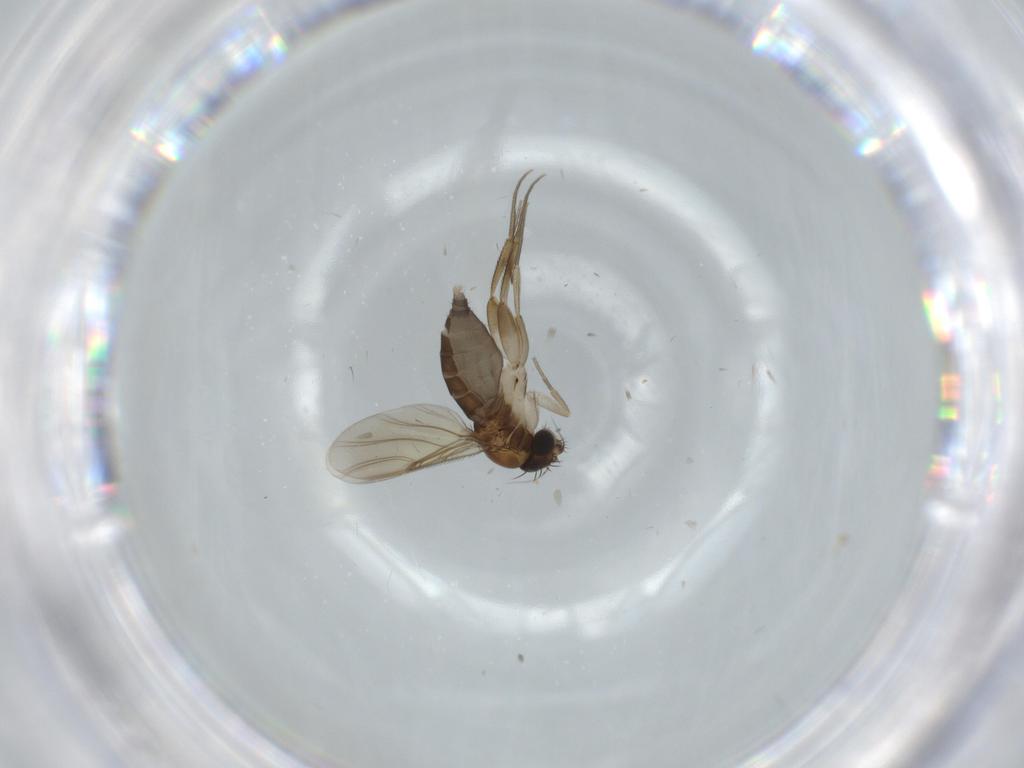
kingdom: Animalia
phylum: Arthropoda
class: Insecta
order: Diptera
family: Phoridae
